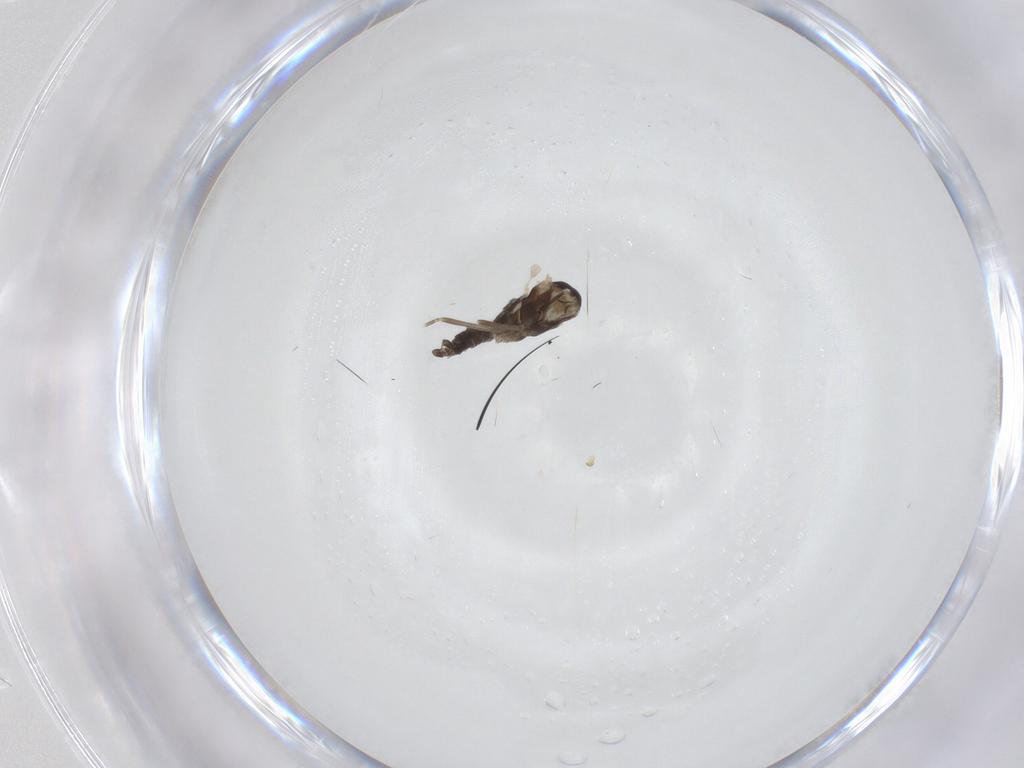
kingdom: Animalia
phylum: Arthropoda
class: Insecta
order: Diptera
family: Cecidomyiidae
